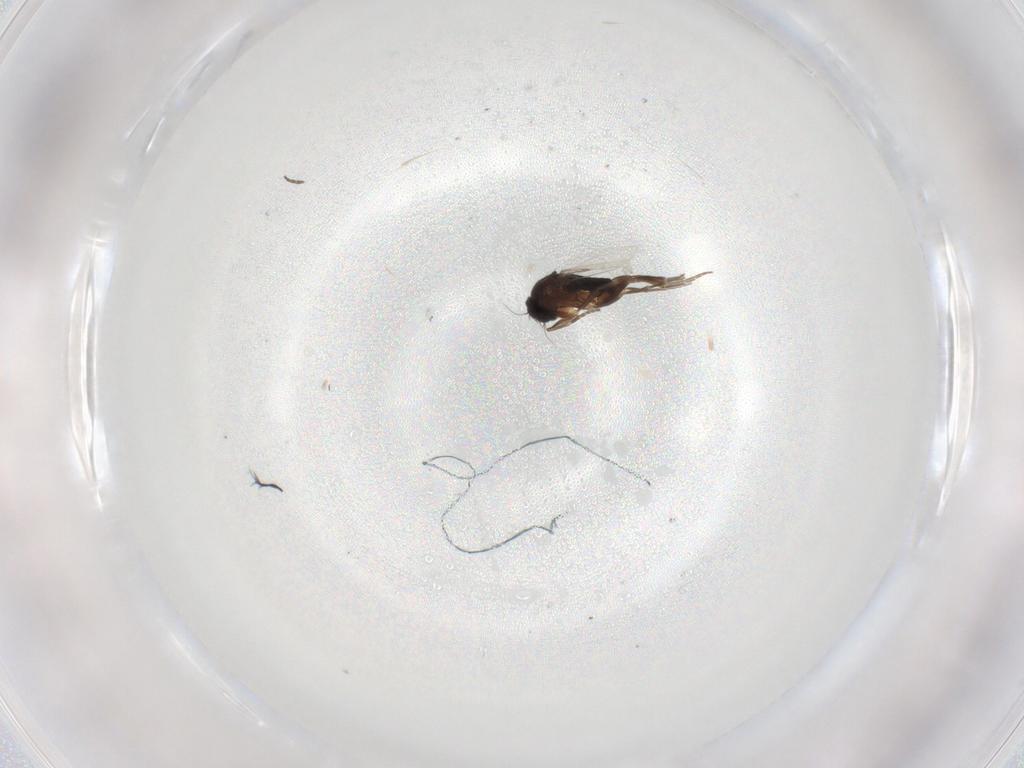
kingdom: Animalia
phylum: Arthropoda
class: Insecta
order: Diptera
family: Phoridae
